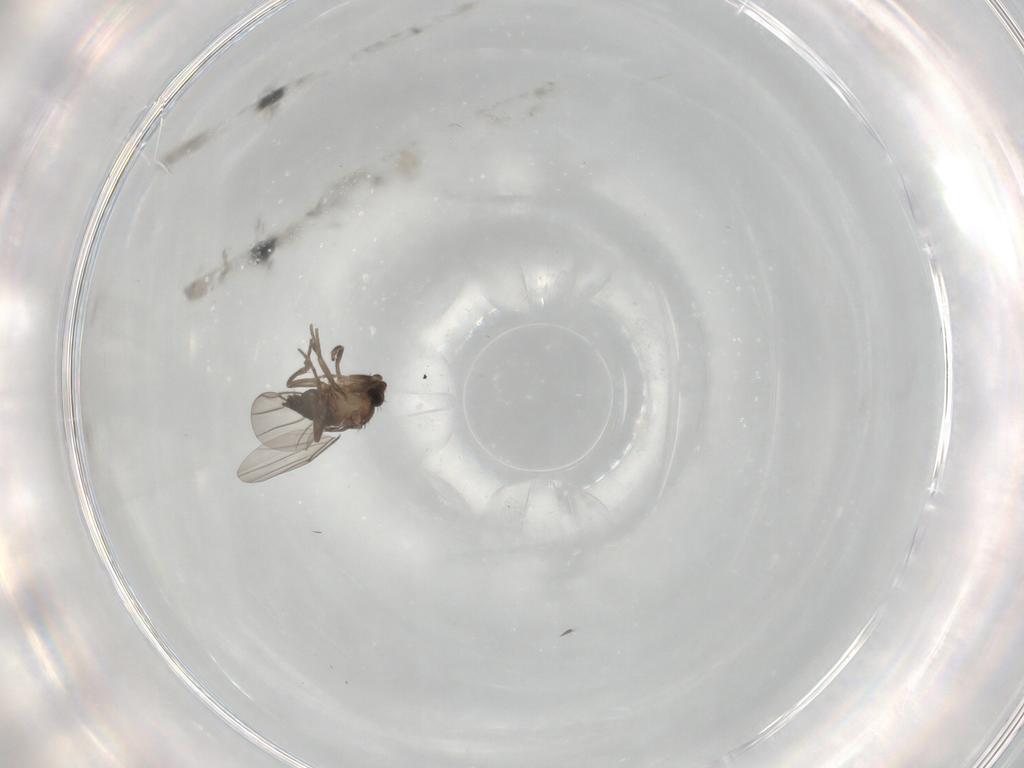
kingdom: Animalia
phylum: Arthropoda
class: Insecta
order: Diptera
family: Phoridae
